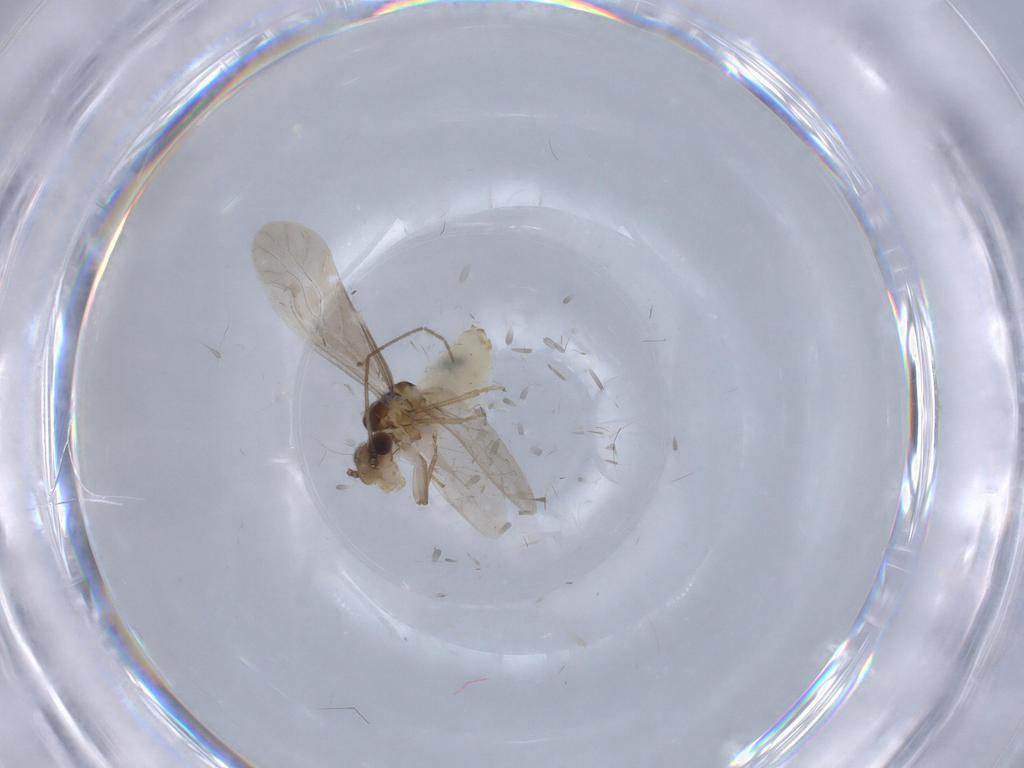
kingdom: Animalia
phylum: Arthropoda
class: Insecta
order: Psocodea
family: Caeciliusidae
